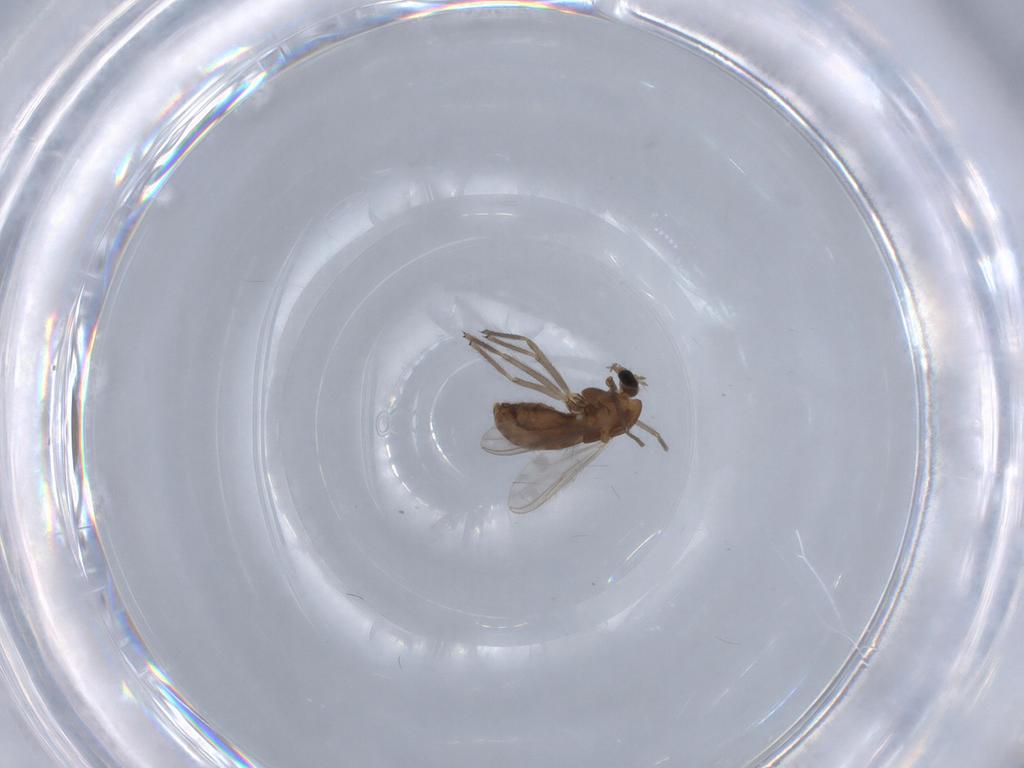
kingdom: Animalia
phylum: Arthropoda
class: Insecta
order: Diptera
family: Chironomidae
